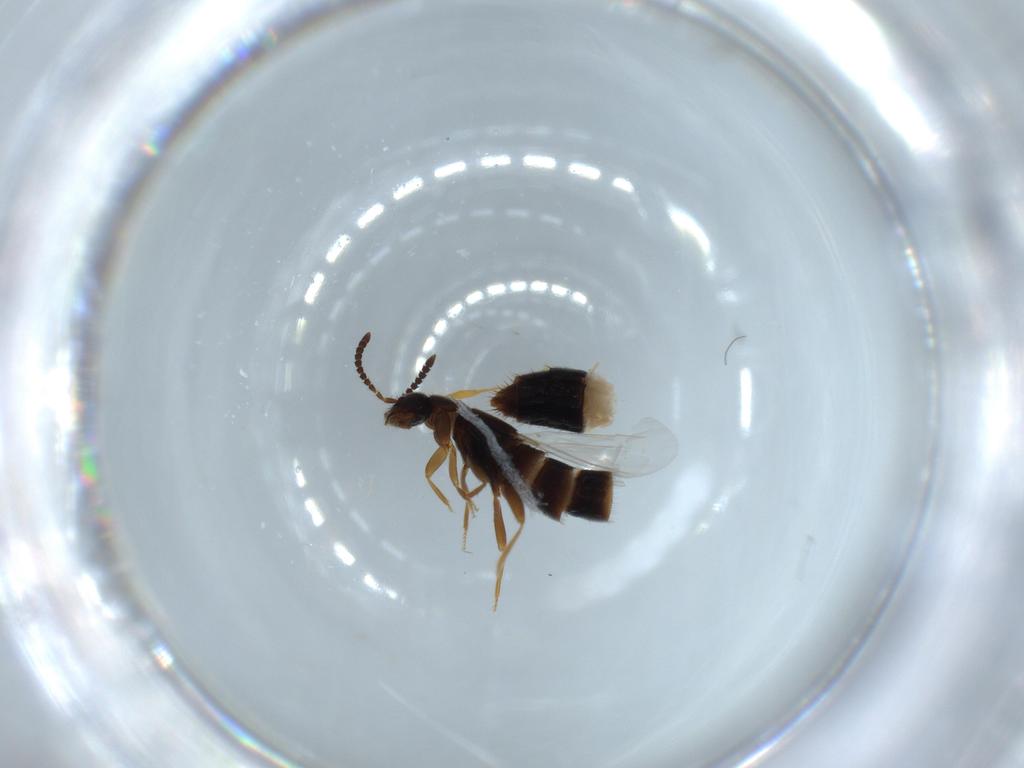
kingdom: Animalia
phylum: Arthropoda
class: Insecta
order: Coleoptera
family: Staphylinidae
